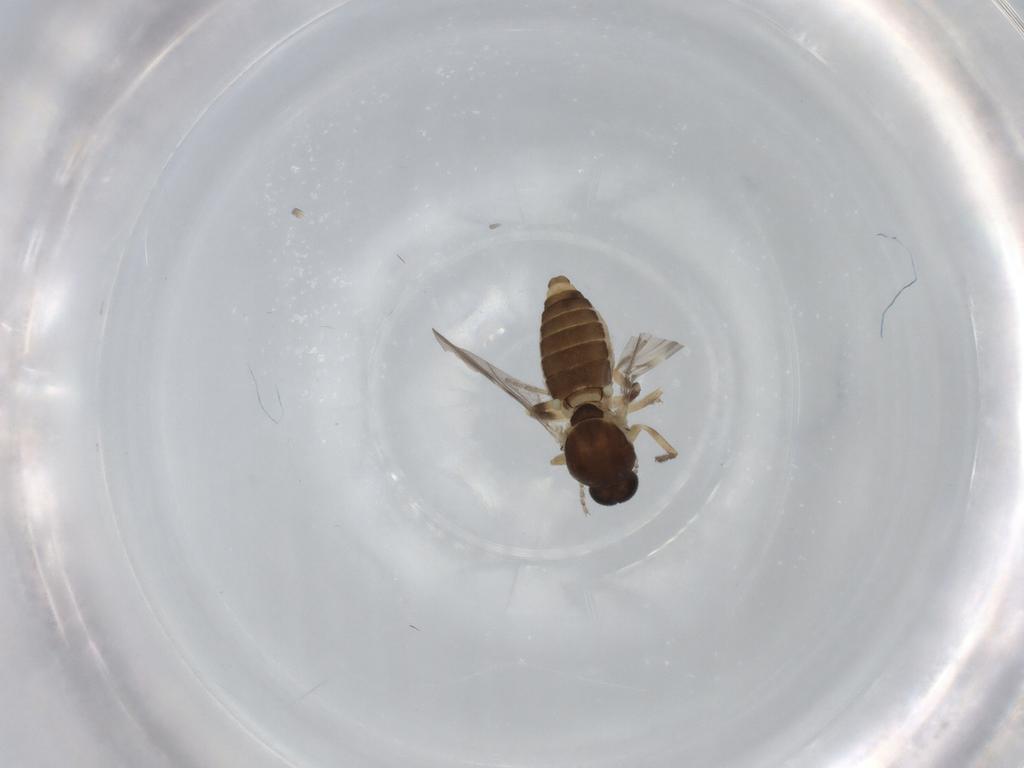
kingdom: Animalia
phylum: Arthropoda
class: Insecta
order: Diptera
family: Ceratopogonidae
